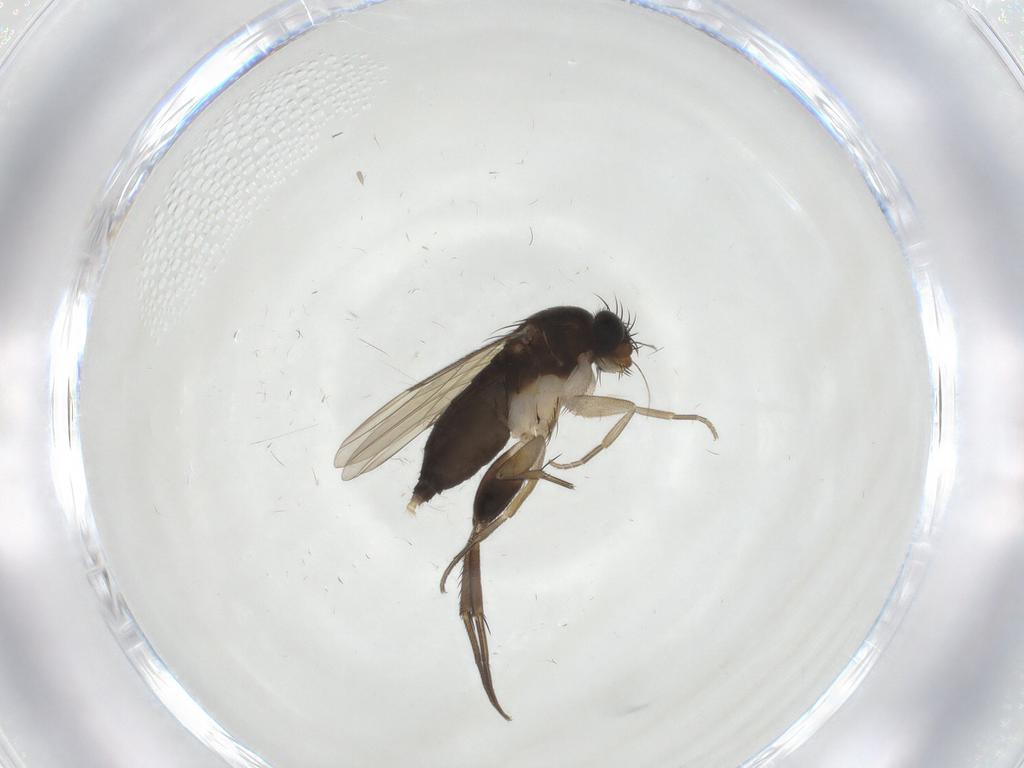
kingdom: Animalia
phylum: Arthropoda
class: Insecta
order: Diptera
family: Phoridae
